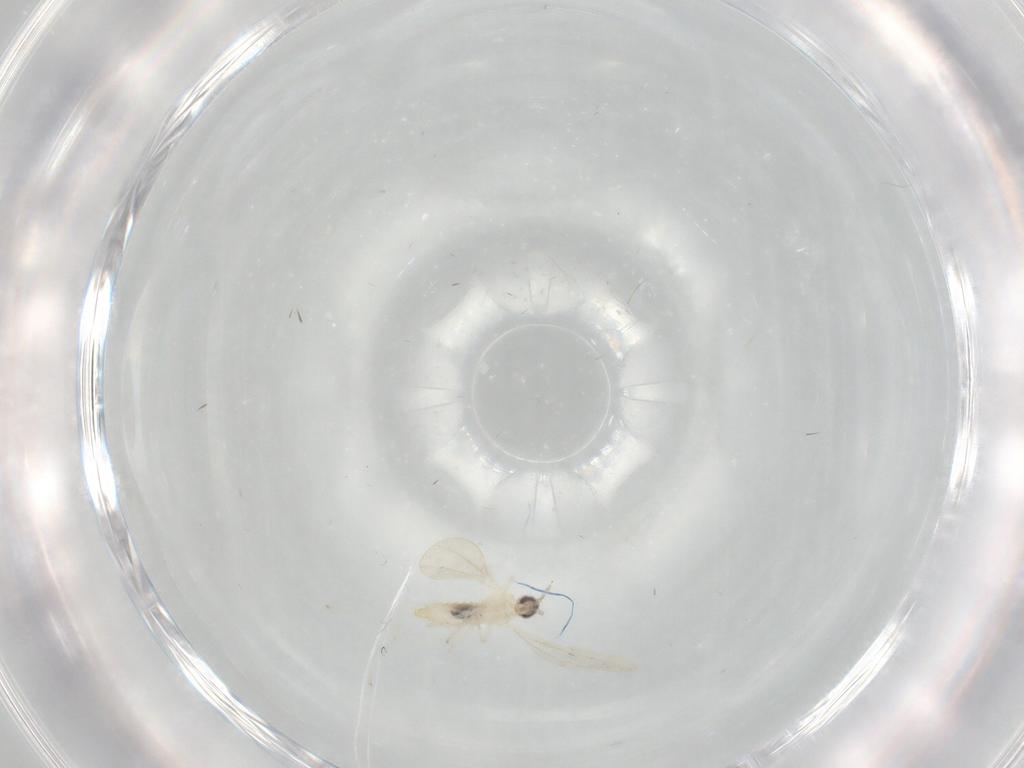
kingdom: Animalia
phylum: Arthropoda
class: Insecta
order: Diptera
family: Cecidomyiidae
